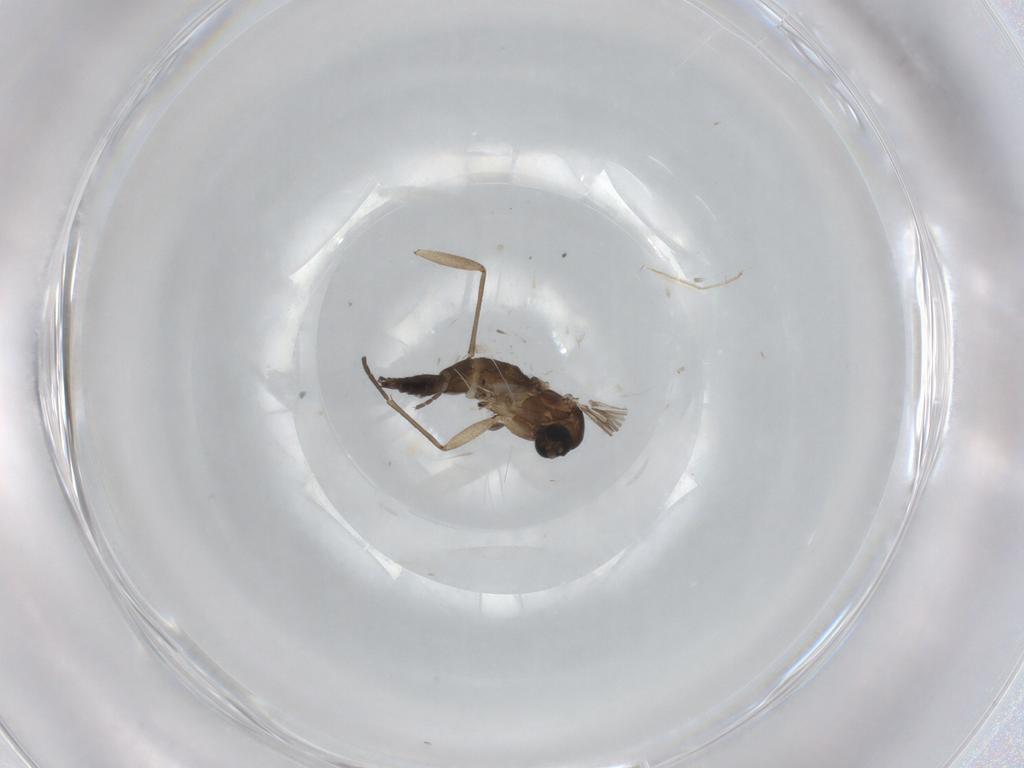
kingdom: Animalia
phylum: Arthropoda
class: Insecta
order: Diptera
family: Sciaridae
